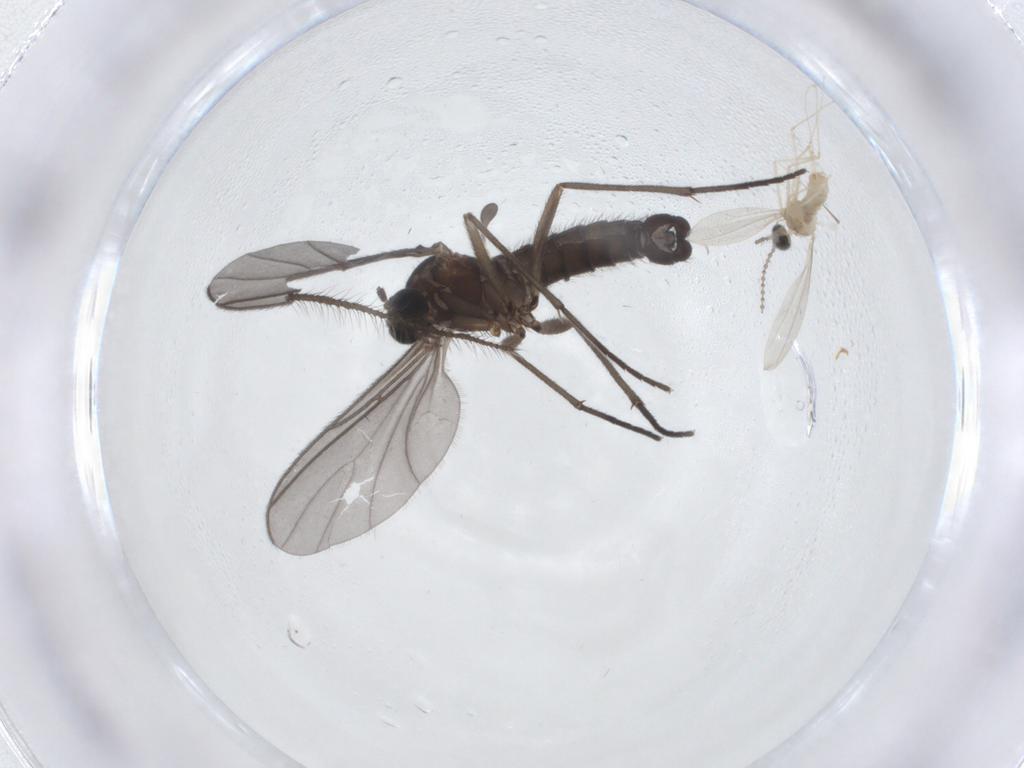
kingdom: Animalia
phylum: Arthropoda
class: Insecta
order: Diptera
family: Sciaridae
